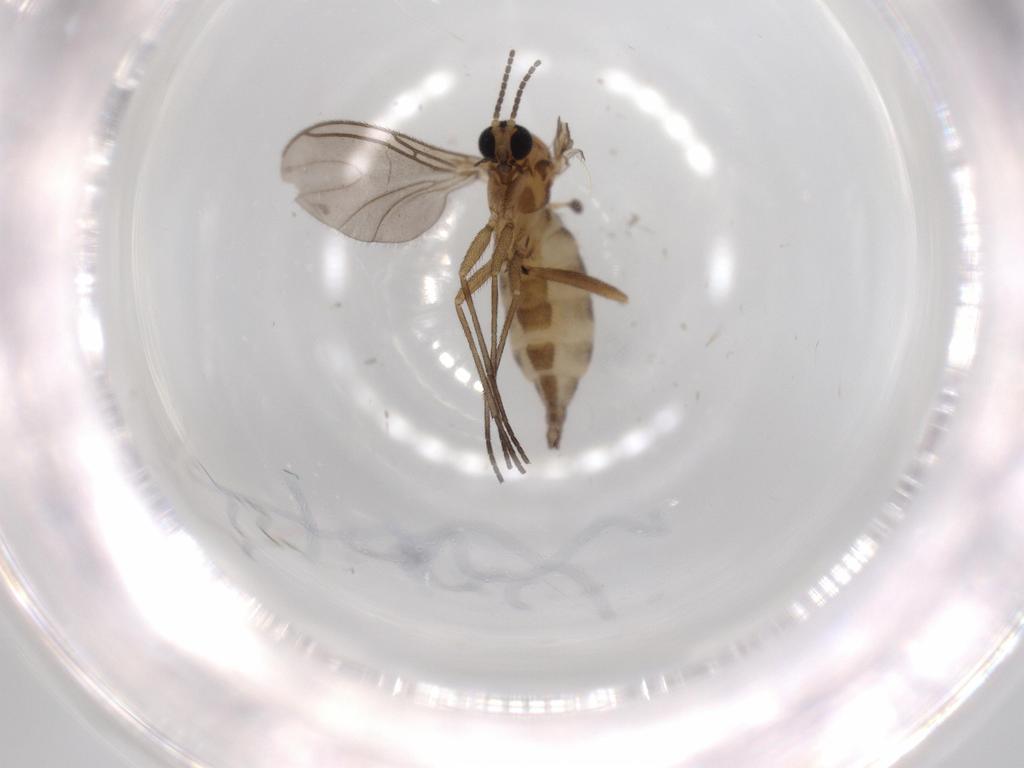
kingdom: Animalia
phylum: Arthropoda
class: Insecta
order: Diptera
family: Sciaridae
